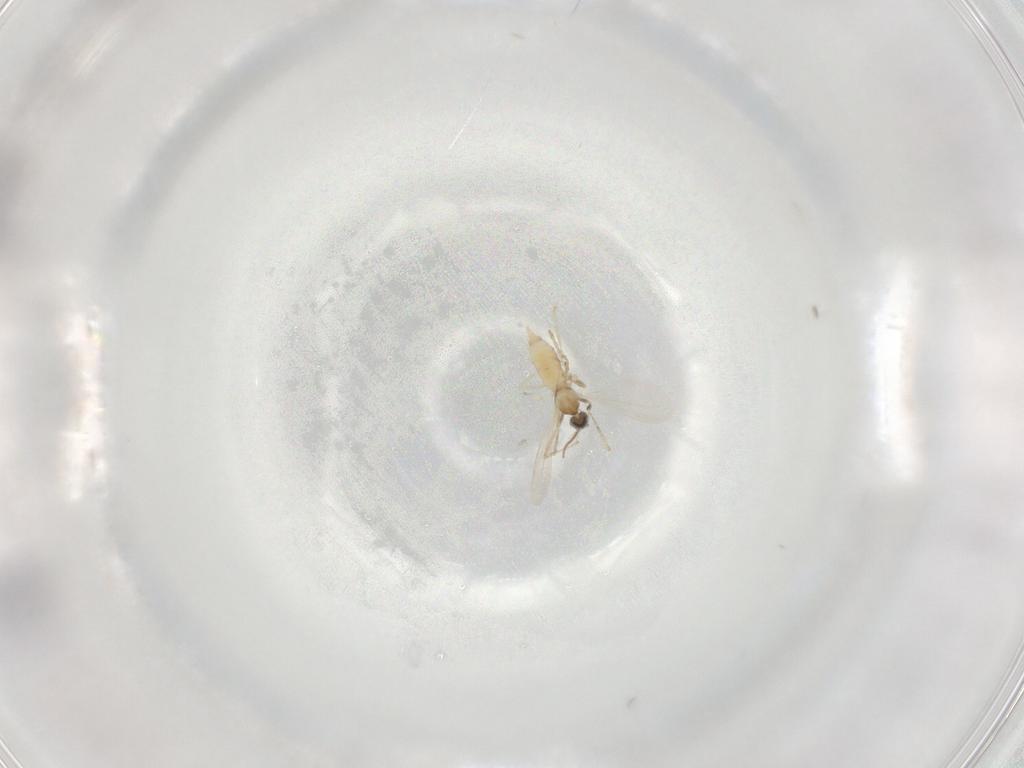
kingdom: Animalia
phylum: Arthropoda
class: Insecta
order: Diptera
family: Cecidomyiidae
